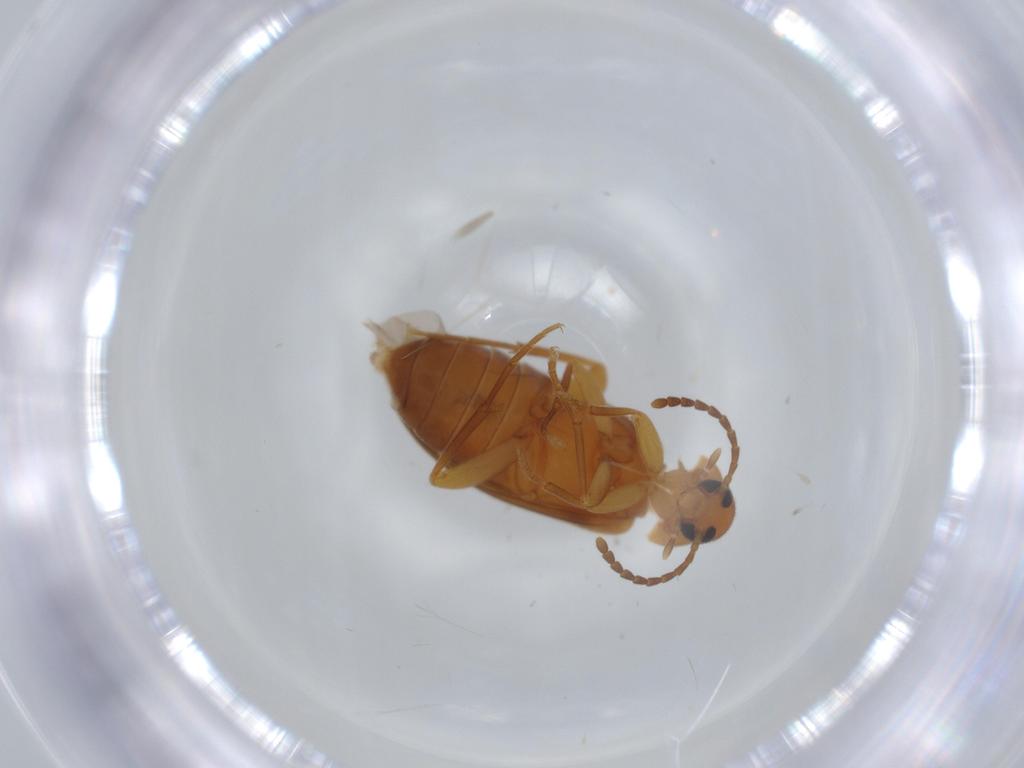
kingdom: Animalia
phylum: Arthropoda
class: Insecta
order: Coleoptera
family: Scraptiidae
